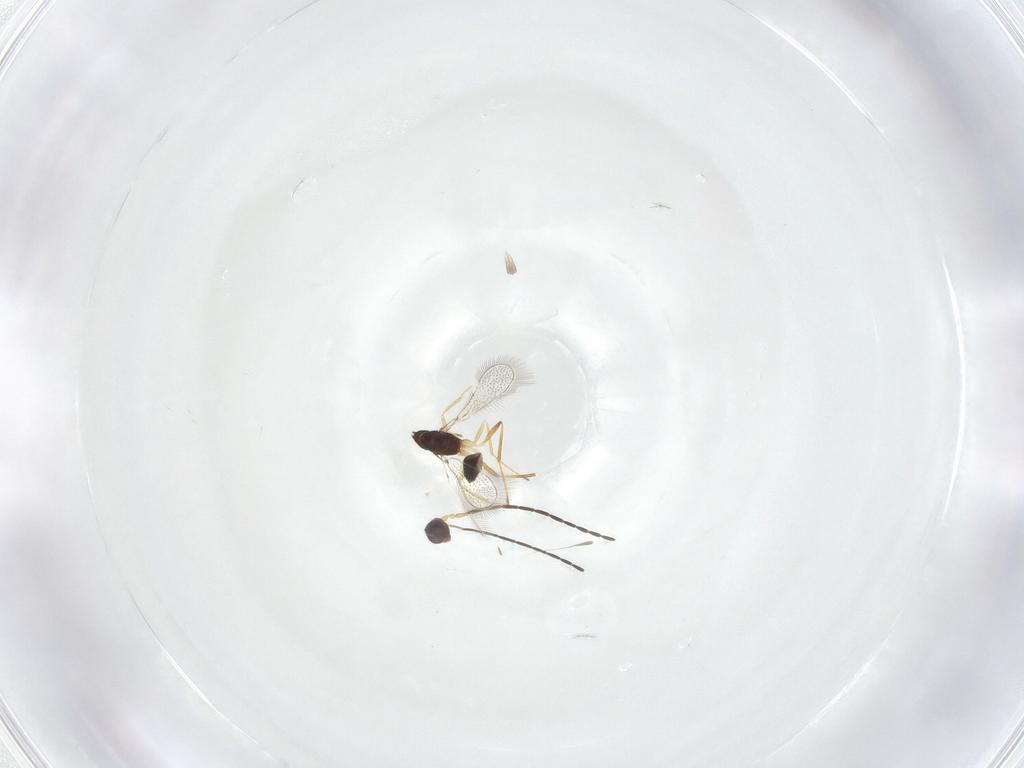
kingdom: Animalia
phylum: Arthropoda
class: Insecta
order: Hymenoptera
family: Mymaridae
